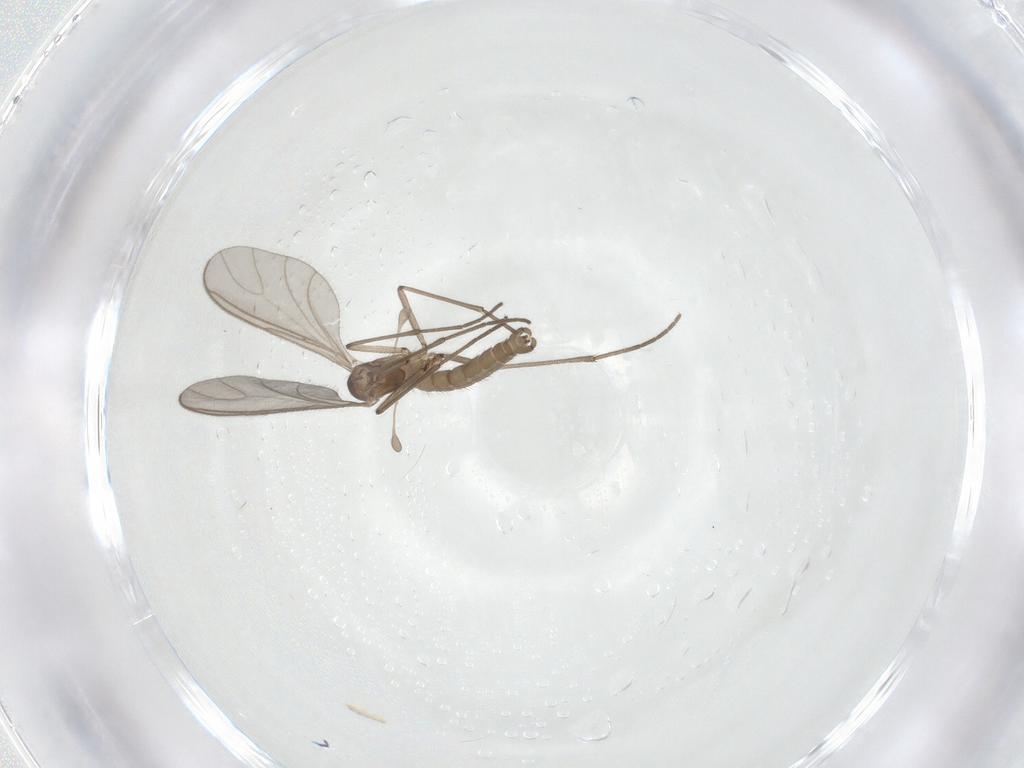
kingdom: Animalia
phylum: Arthropoda
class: Insecta
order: Diptera
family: Sciaridae
